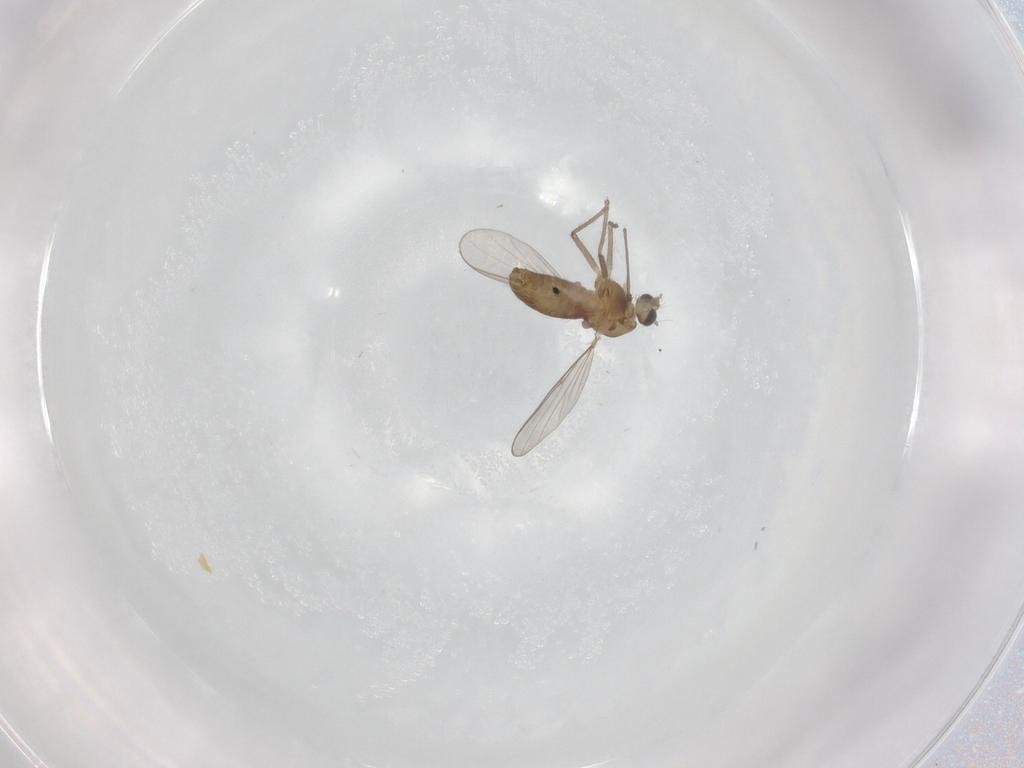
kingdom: Animalia
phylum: Arthropoda
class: Insecta
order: Diptera
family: Chironomidae
